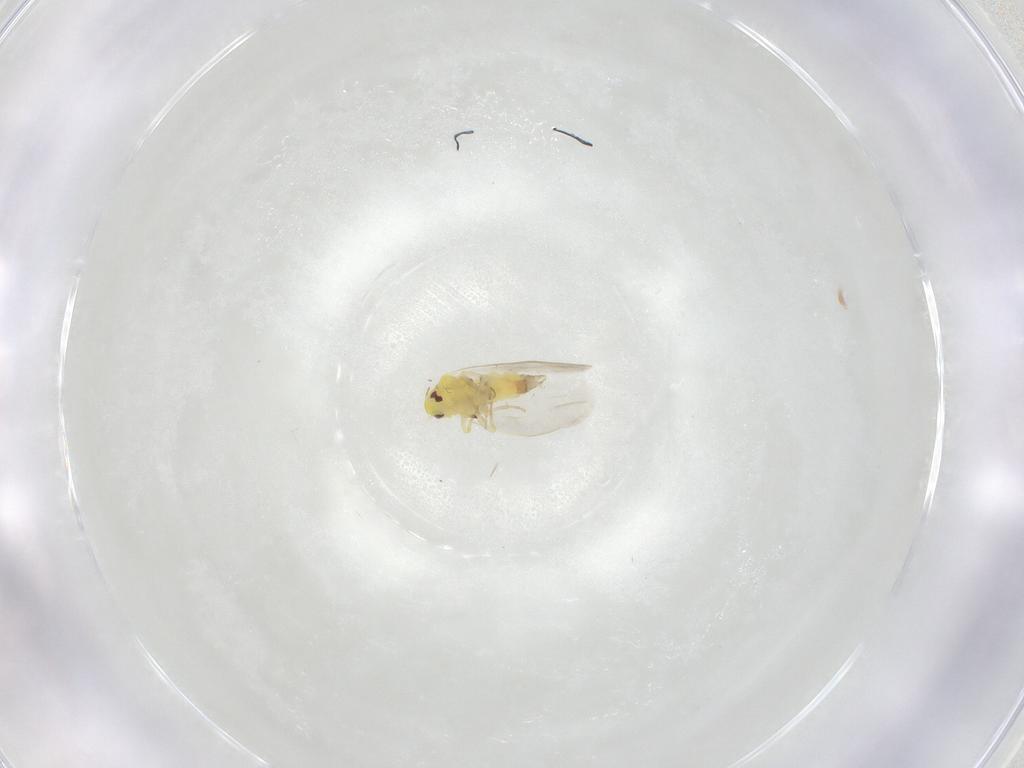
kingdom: Animalia
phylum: Arthropoda
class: Insecta
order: Hemiptera
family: Aleyrodidae
